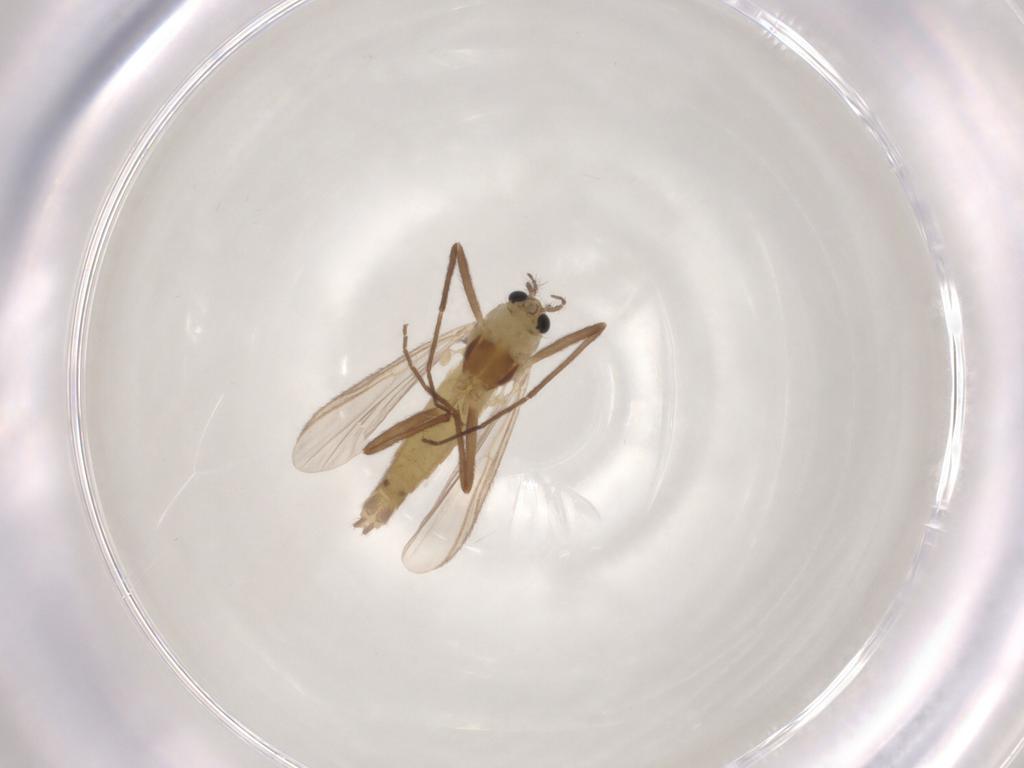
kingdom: Animalia
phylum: Arthropoda
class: Insecta
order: Diptera
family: Chironomidae
